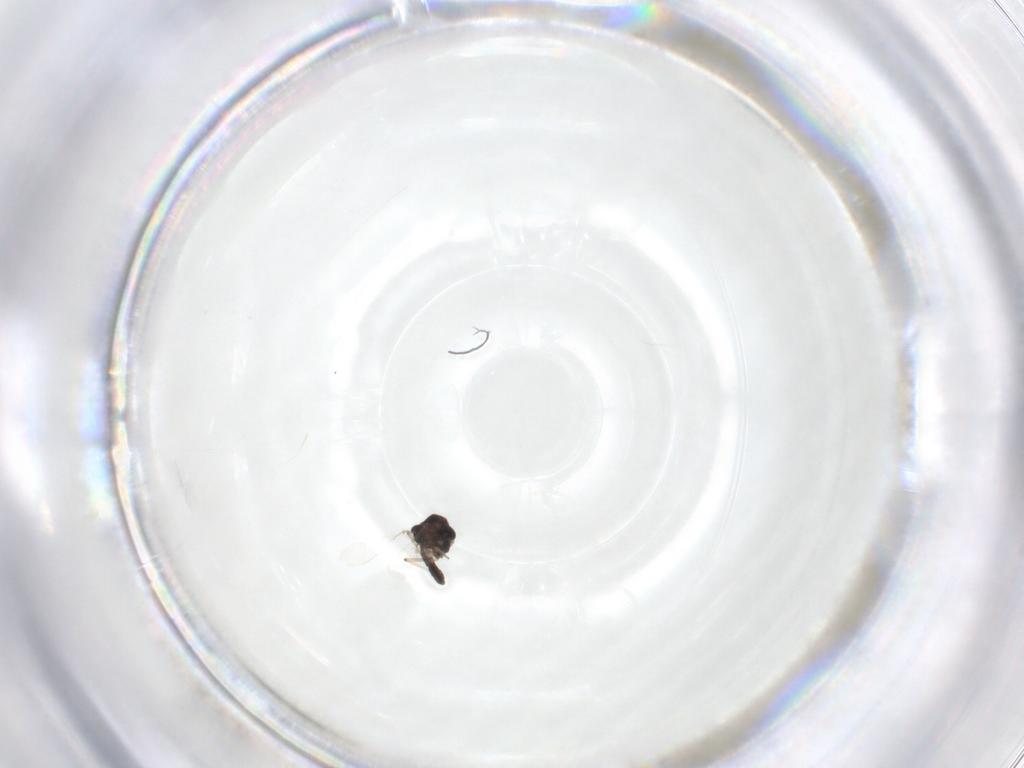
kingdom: Animalia
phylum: Arthropoda
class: Insecta
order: Diptera
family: Chironomidae
